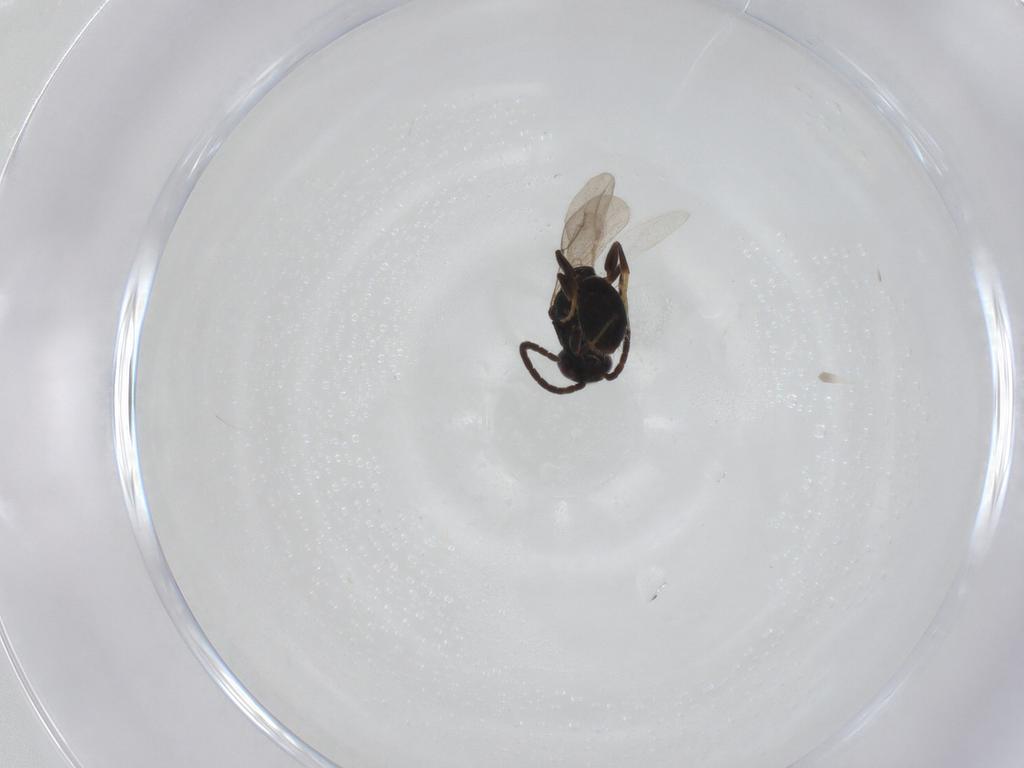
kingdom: Animalia
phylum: Arthropoda
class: Insecta
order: Hymenoptera
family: Bethylidae
